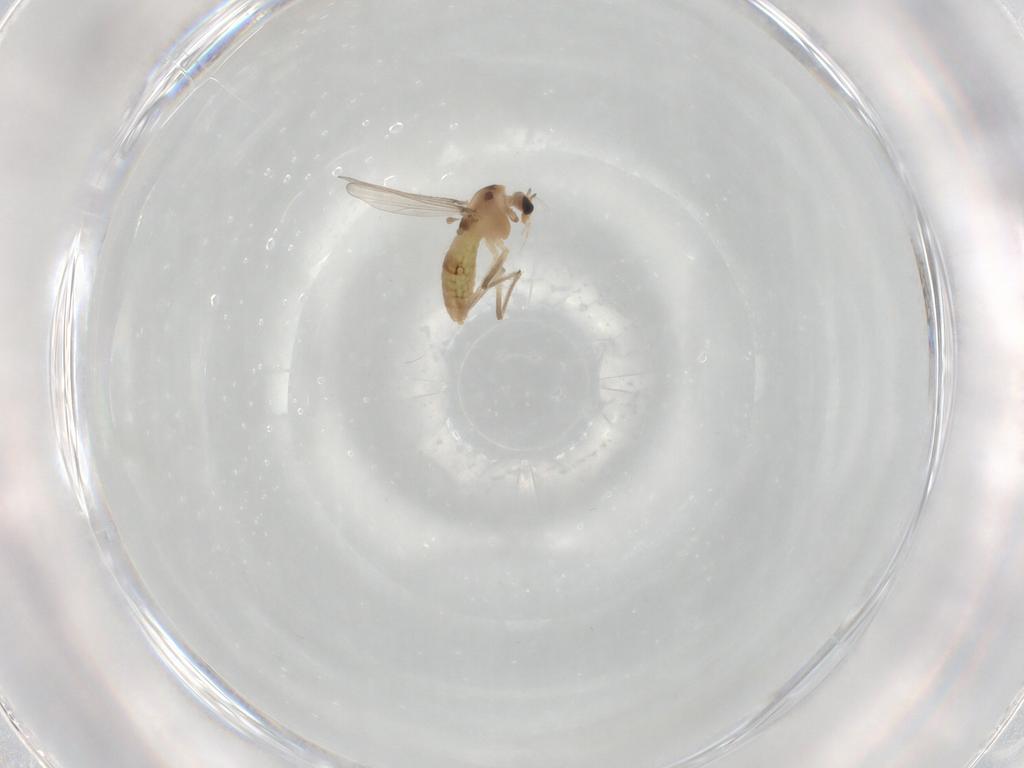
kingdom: Animalia
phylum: Arthropoda
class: Insecta
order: Diptera
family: Chironomidae
